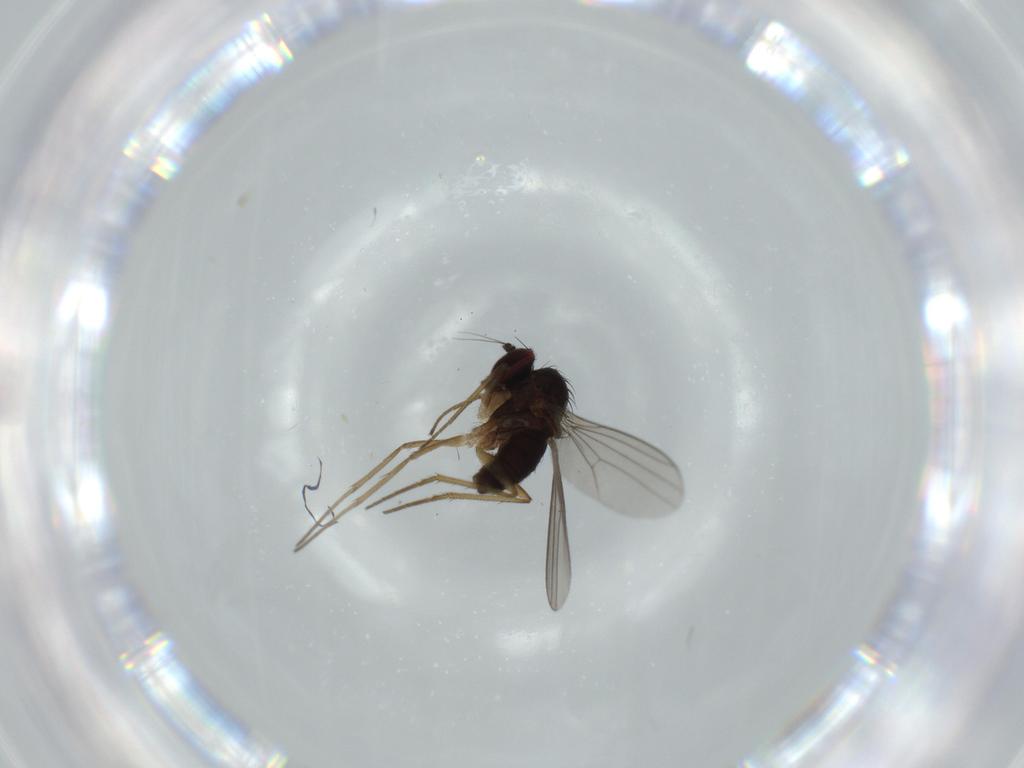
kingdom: Animalia
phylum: Arthropoda
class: Insecta
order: Diptera
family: Dolichopodidae
